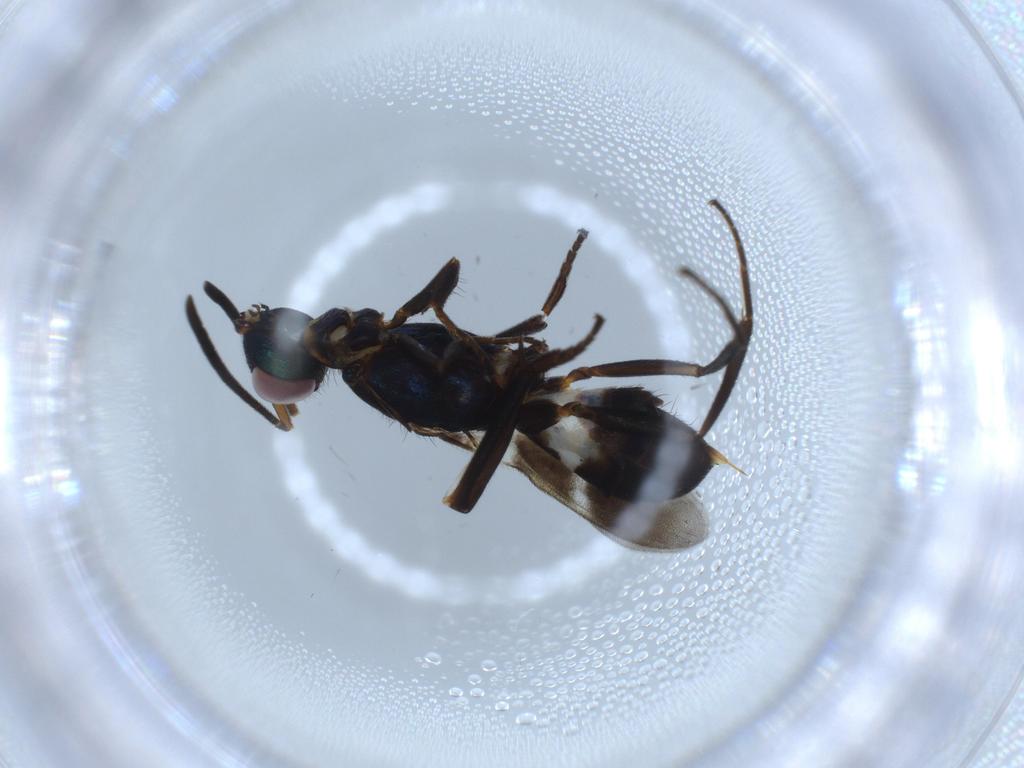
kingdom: Animalia
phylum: Arthropoda
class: Insecta
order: Hymenoptera
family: Eupelmidae
